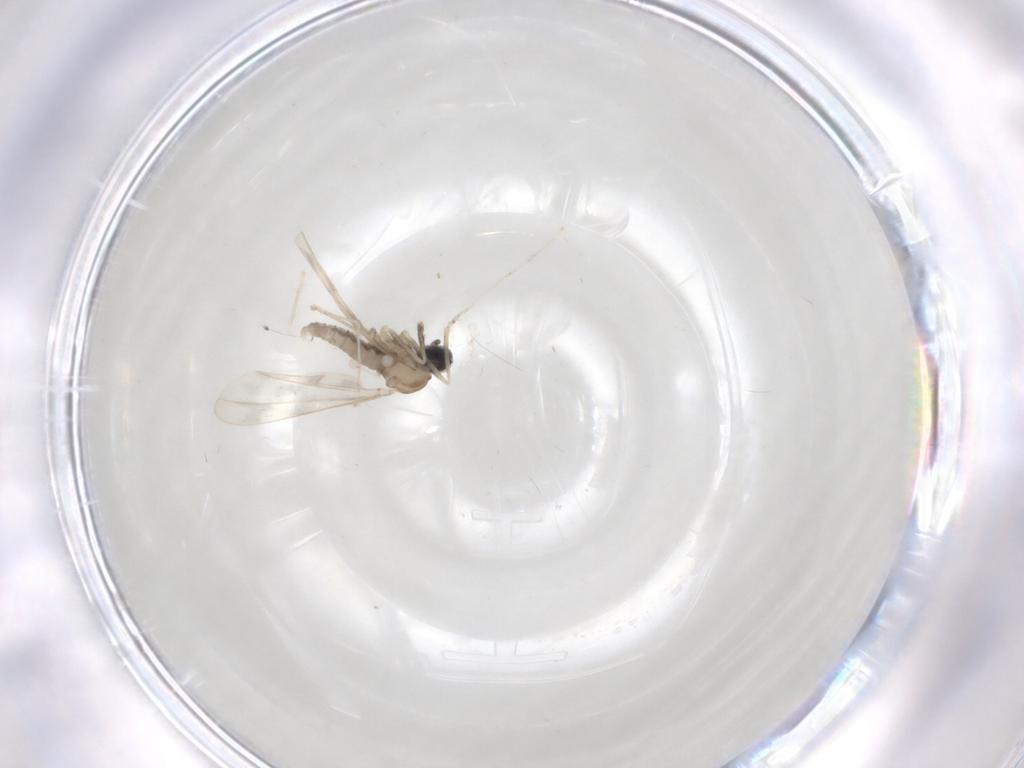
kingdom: Animalia
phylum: Arthropoda
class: Insecta
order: Diptera
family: Cecidomyiidae
